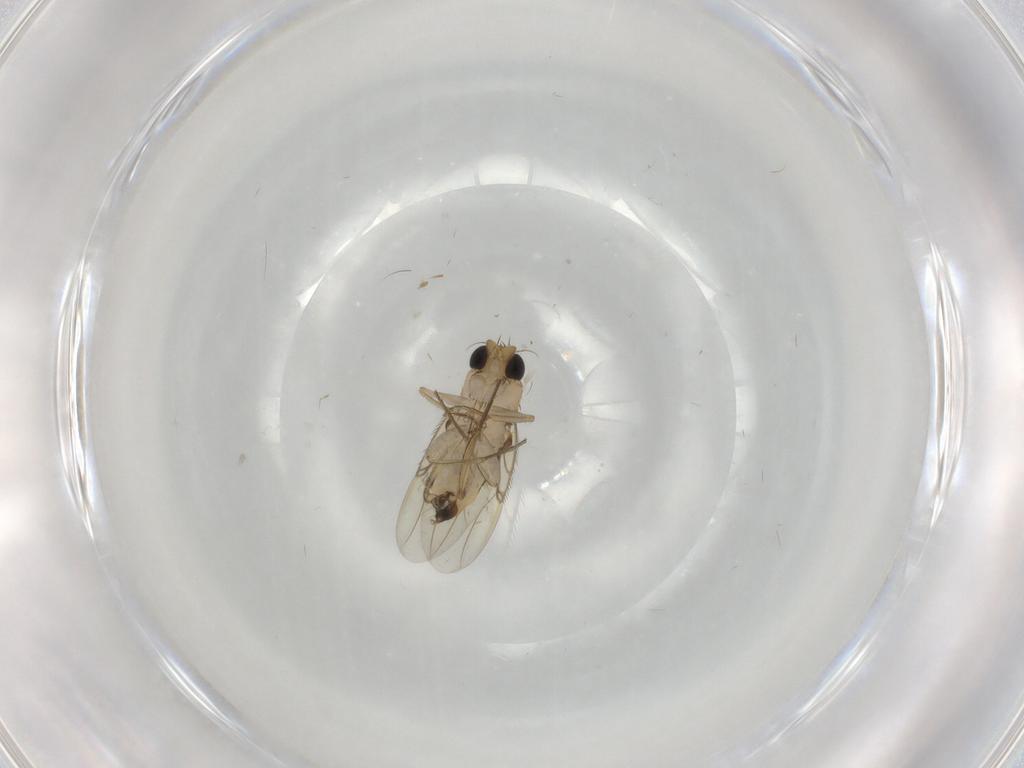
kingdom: Animalia
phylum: Arthropoda
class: Insecta
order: Diptera
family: Phoridae
